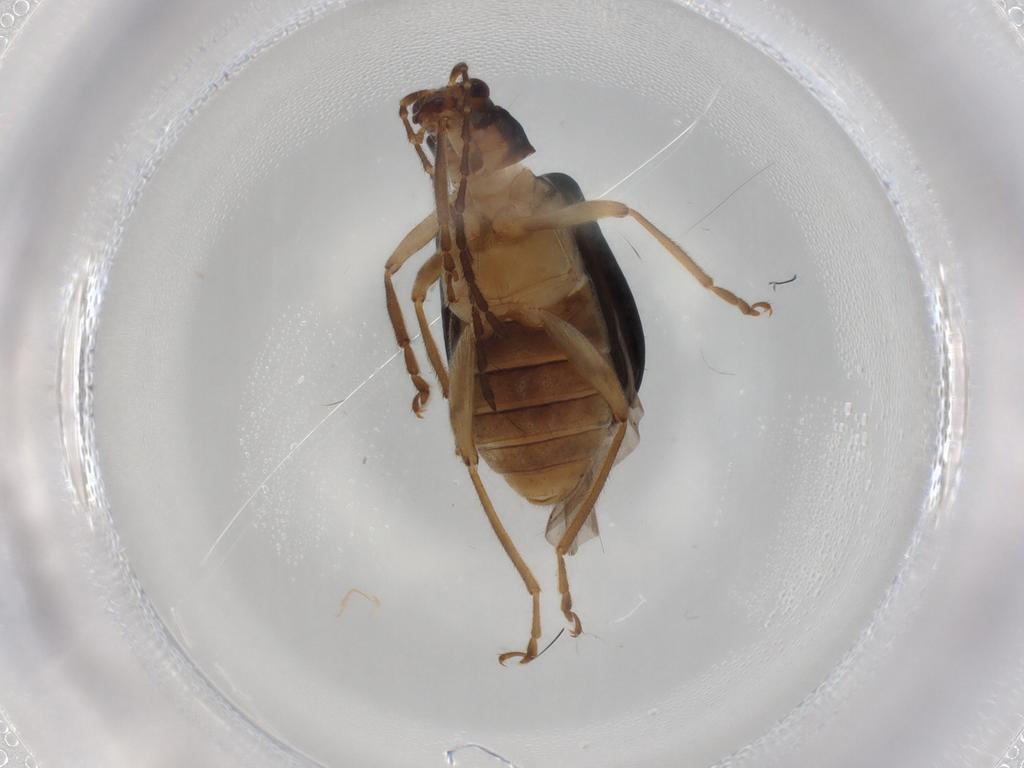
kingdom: Animalia
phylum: Arthropoda
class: Insecta
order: Coleoptera
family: Chrysomelidae
